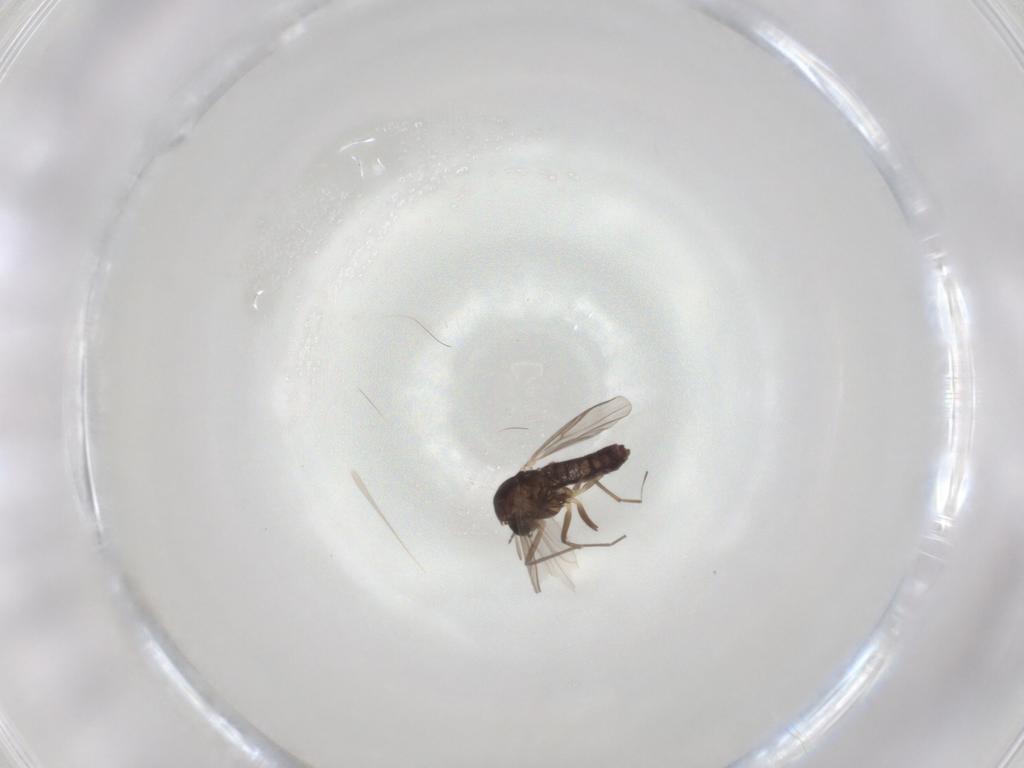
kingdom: Animalia
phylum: Arthropoda
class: Insecta
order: Diptera
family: Chironomidae
